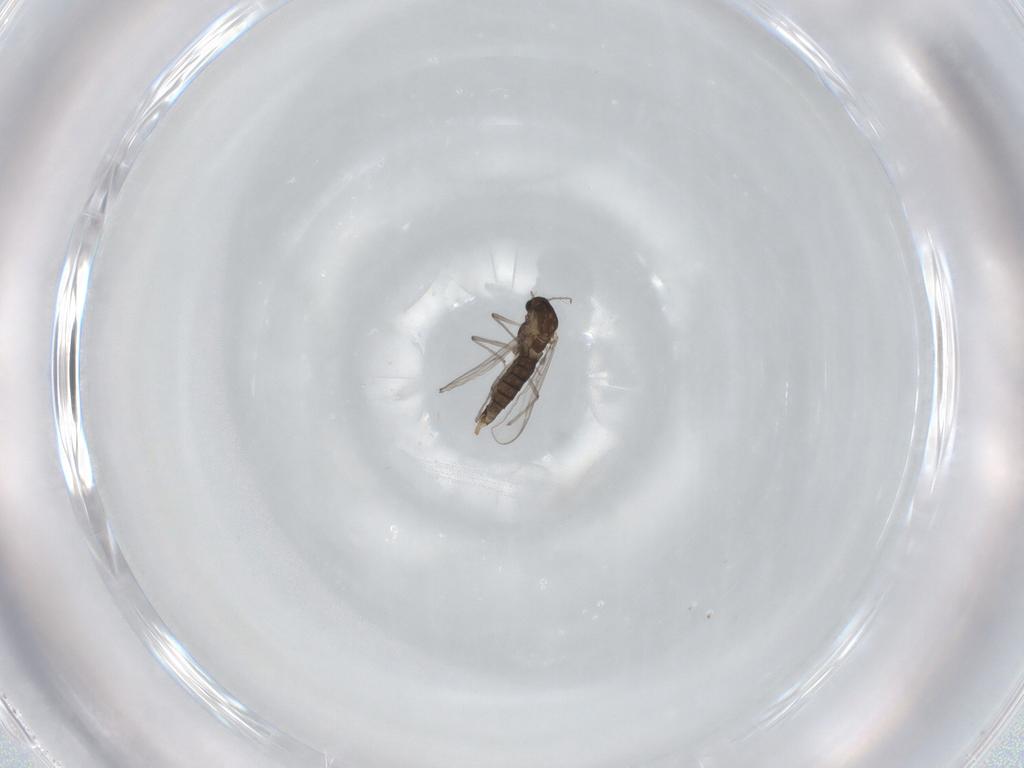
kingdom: Animalia
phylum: Arthropoda
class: Insecta
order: Diptera
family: Chironomidae
